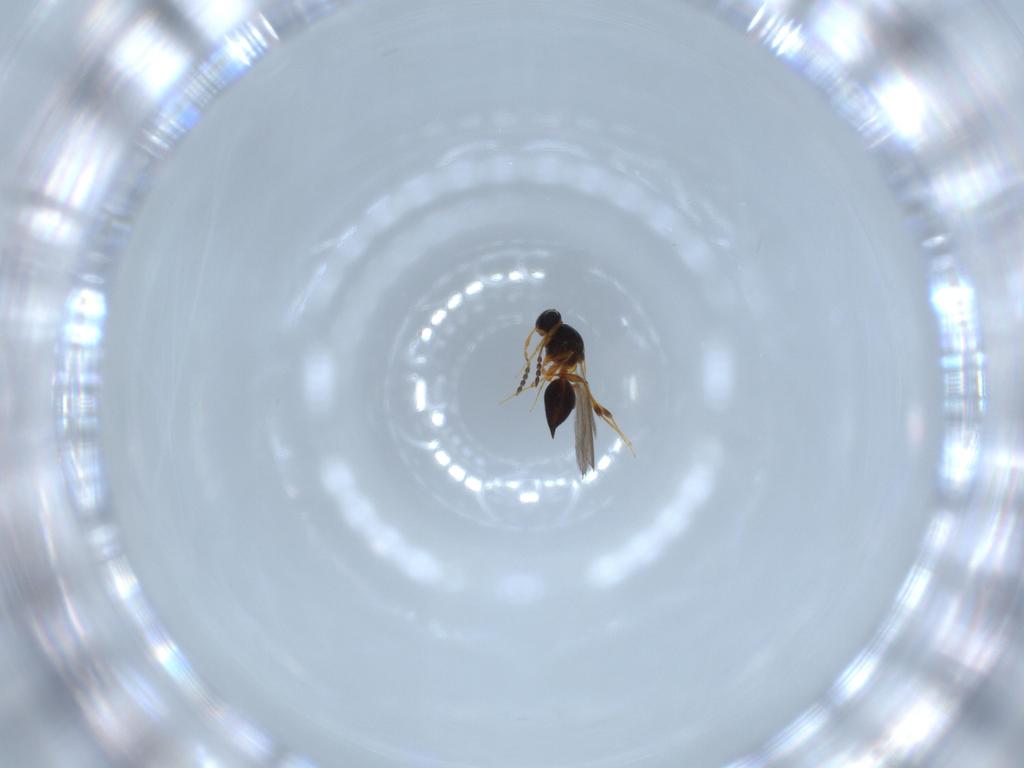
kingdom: Animalia
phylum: Arthropoda
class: Insecta
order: Hymenoptera
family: Platygastridae
